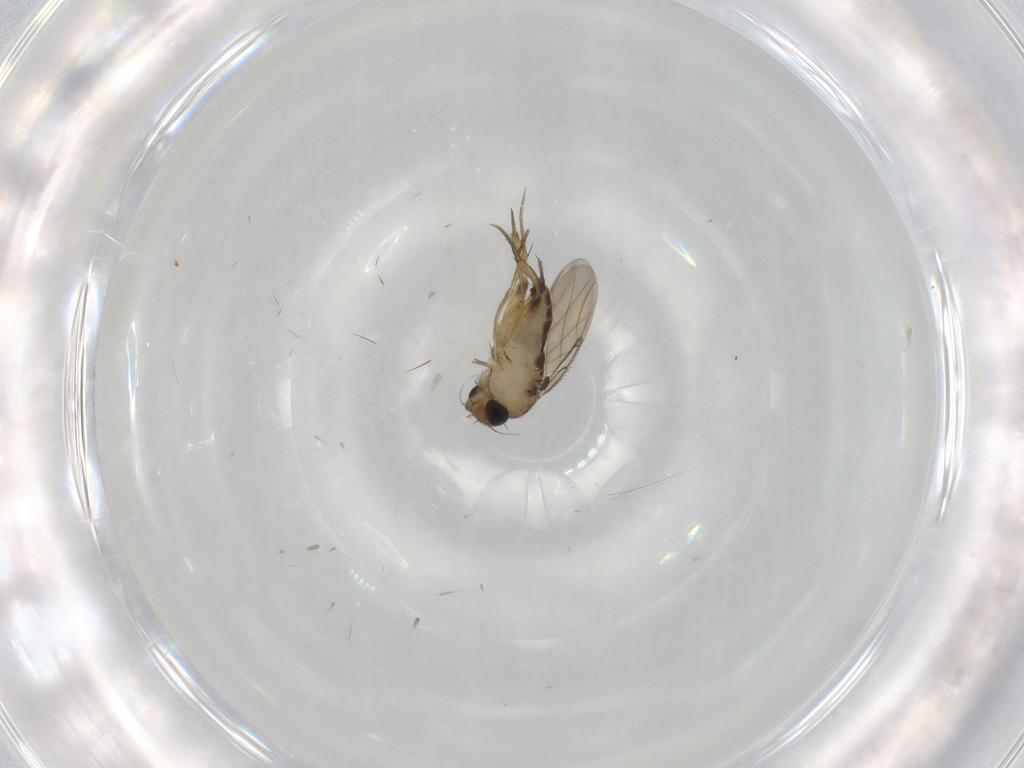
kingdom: Animalia
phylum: Arthropoda
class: Insecta
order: Diptera
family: Phoridae
